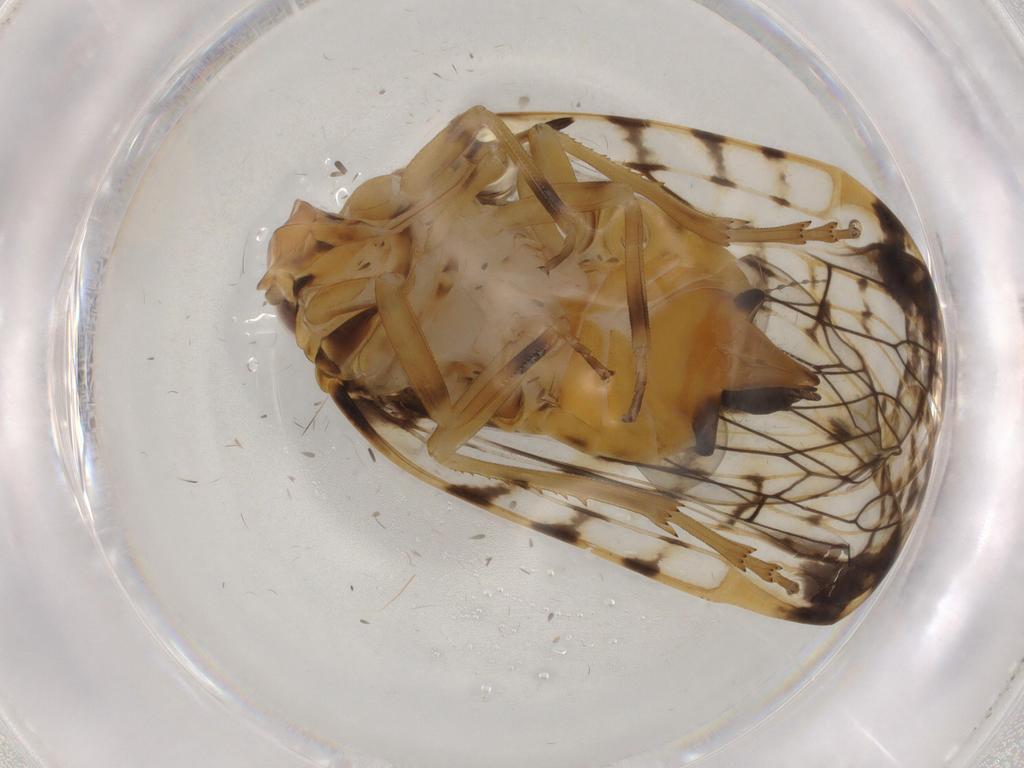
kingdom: Animalia
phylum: Arthropoda
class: Insecta
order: Hemiptera
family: Cixiidae
